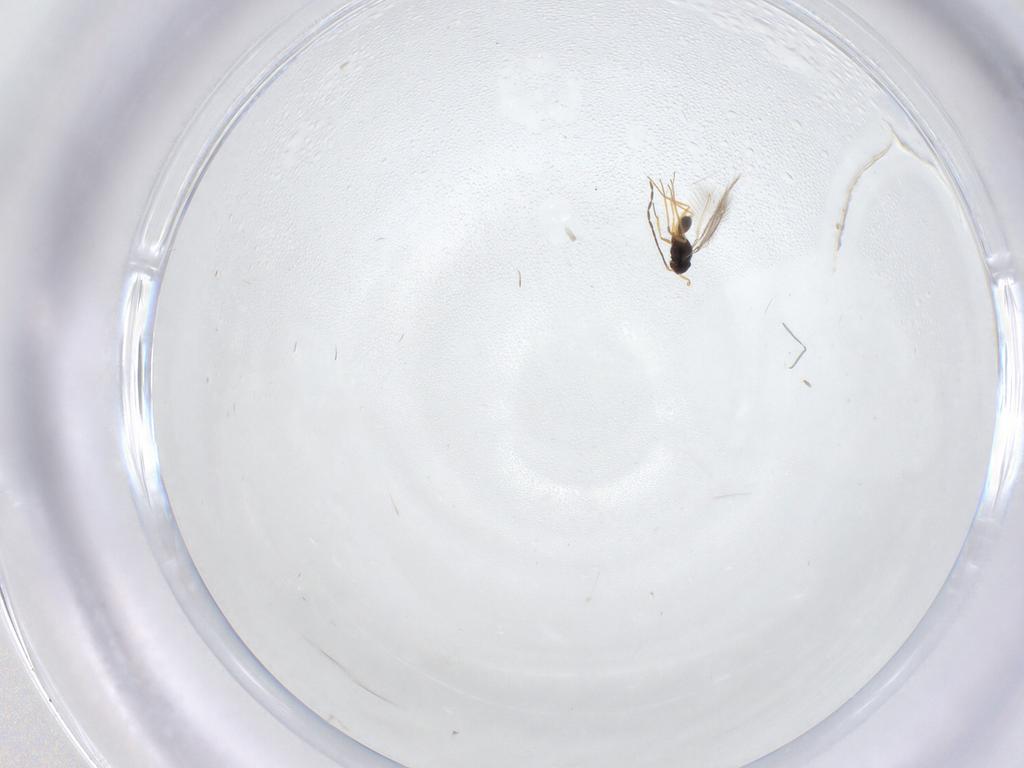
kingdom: Animalia
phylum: Arthropoda
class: Insecta
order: Hymenoptera
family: Mymaridae
